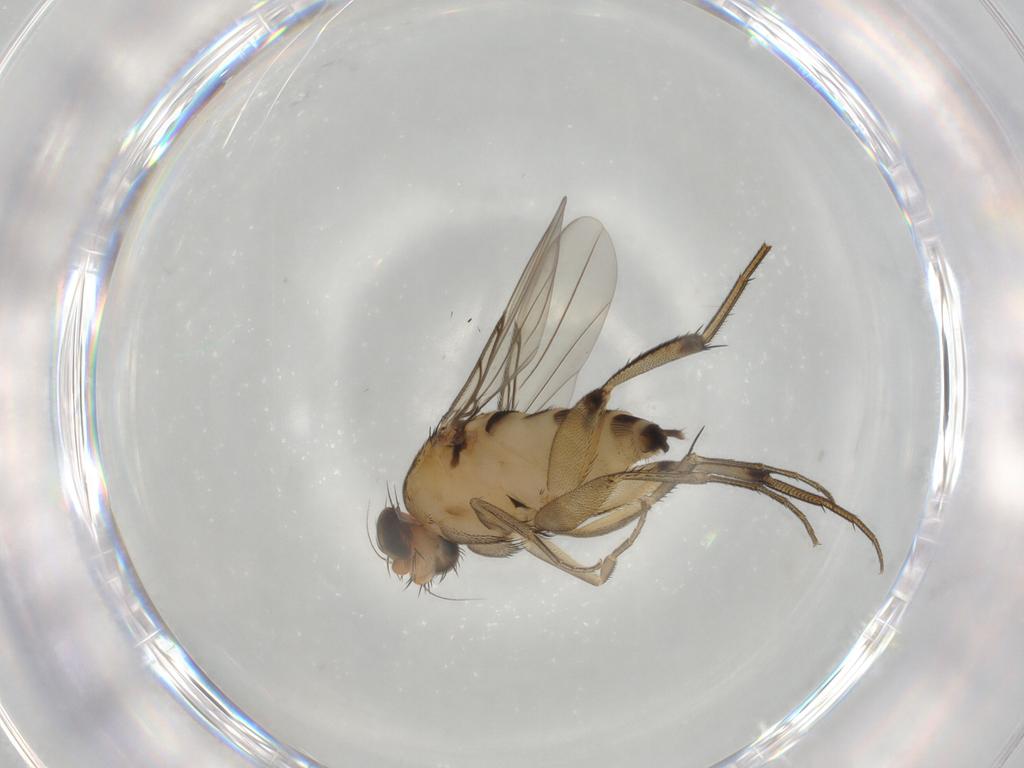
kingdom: Animalia
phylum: Arthropoda
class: Insecta
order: Diptera
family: Phoridae
